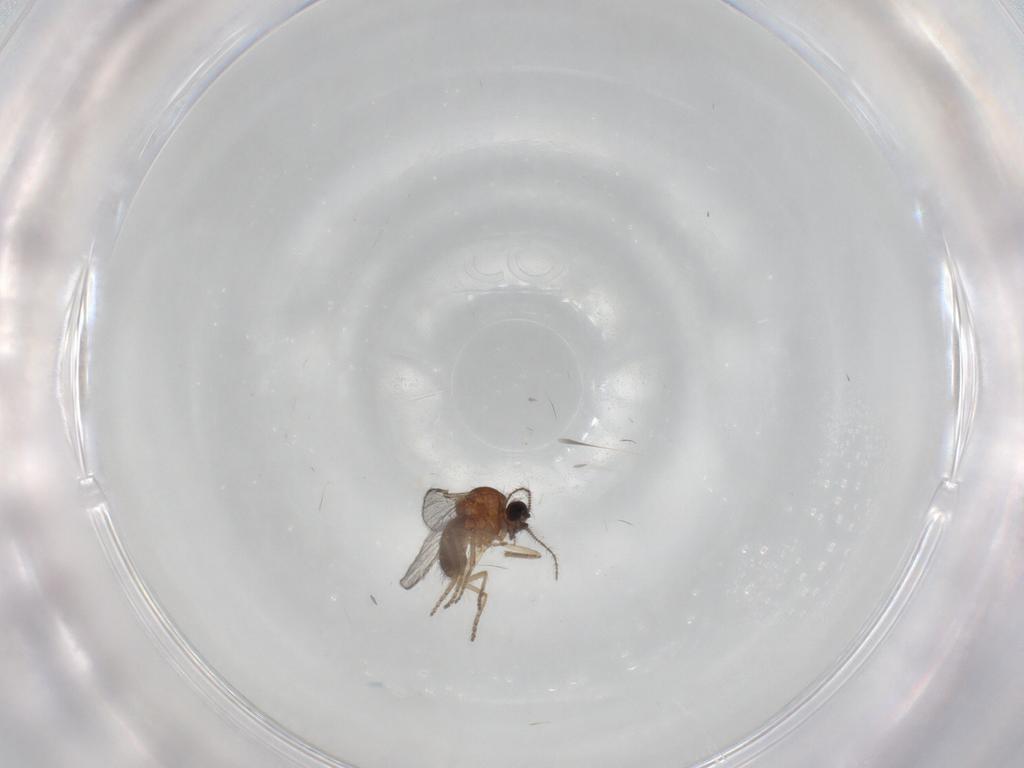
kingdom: Animalia
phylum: Arthropoda
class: Insecta
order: Diptera
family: Ceratopogonidae
